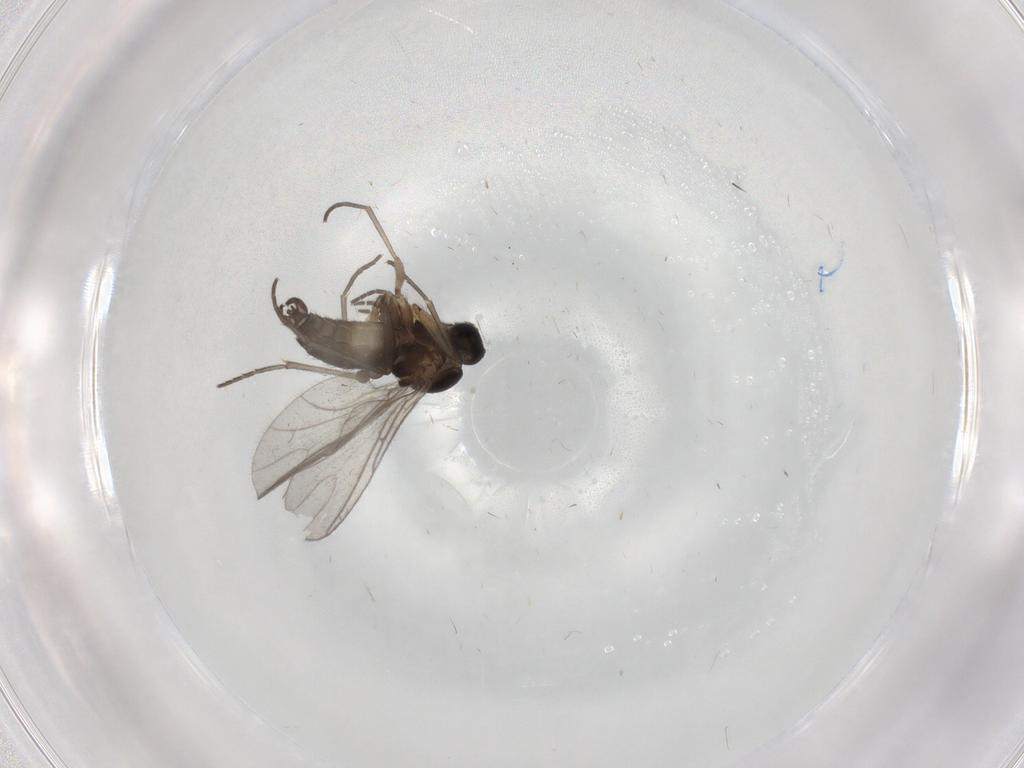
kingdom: Animalia
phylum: Arthropoda
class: Insecta
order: Diptera
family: Sciaridae
